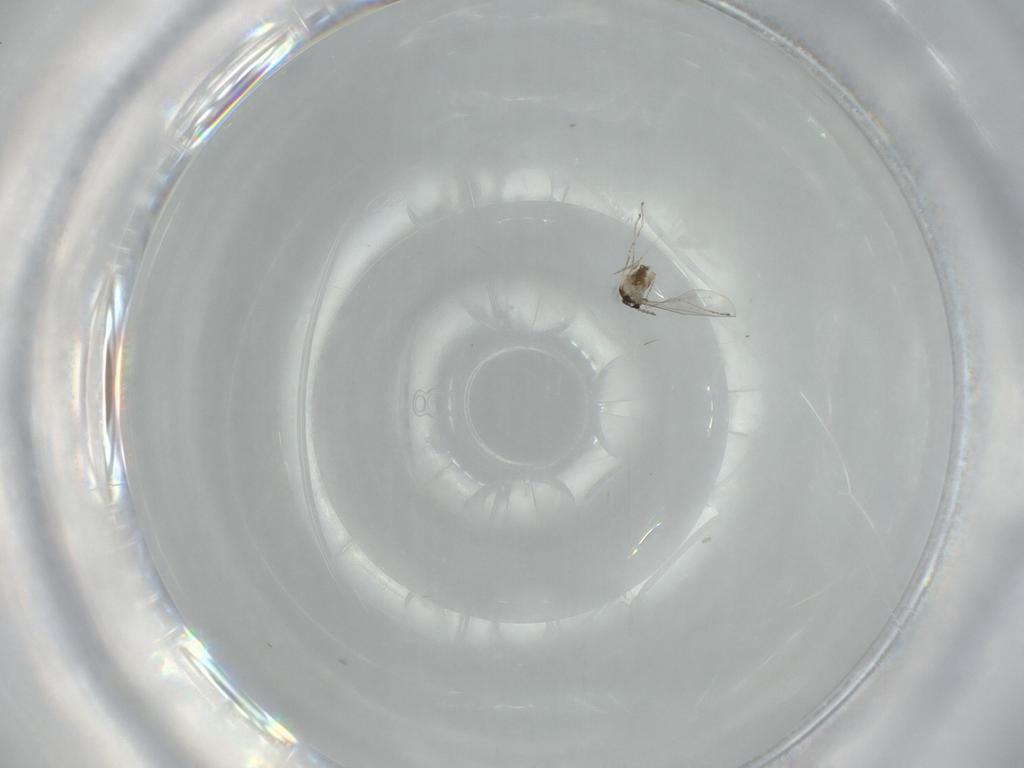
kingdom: Animalia
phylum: Arthropoda
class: Insecta
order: Diptera
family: Cecidomyiidae
